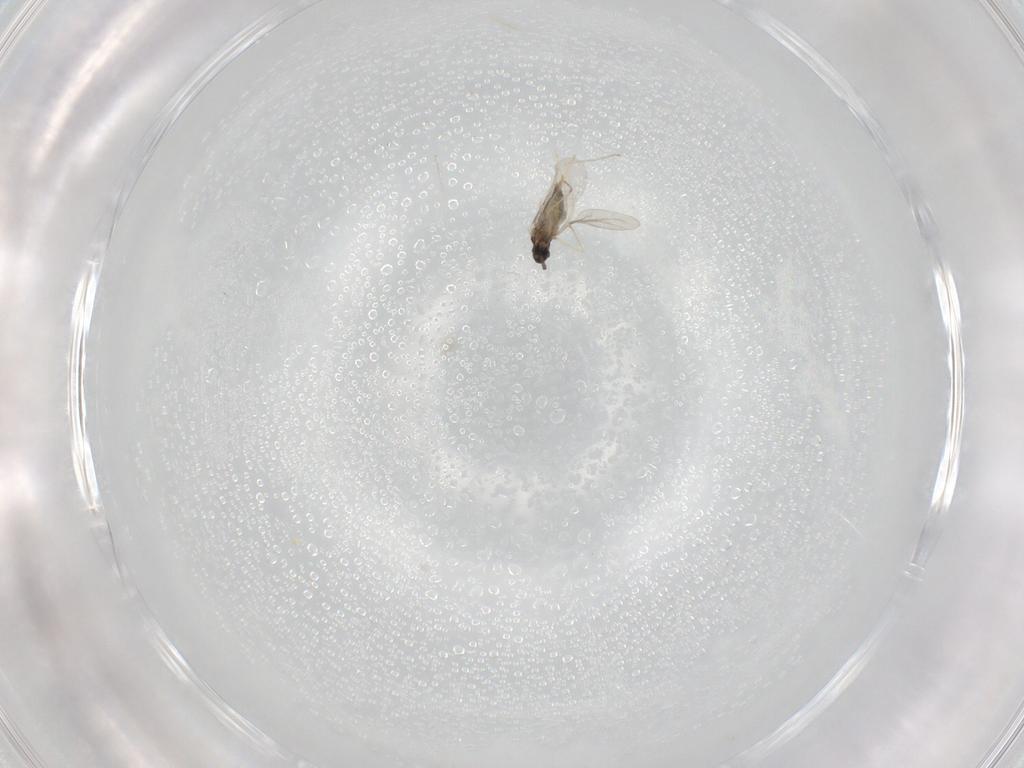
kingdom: Animalia
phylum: Arthropoda
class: Insecta
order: Diptera
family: Cecidomyiidae
